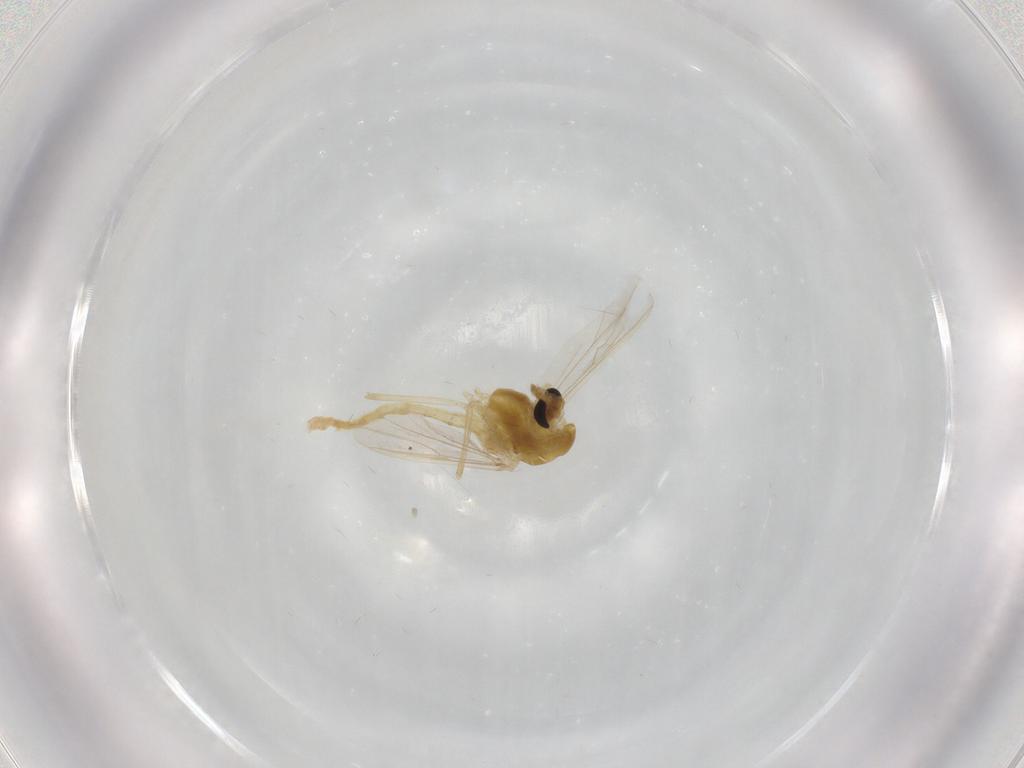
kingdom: Animalia
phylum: Arthropoda
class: Insecta
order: Diptera
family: Chironomidae
